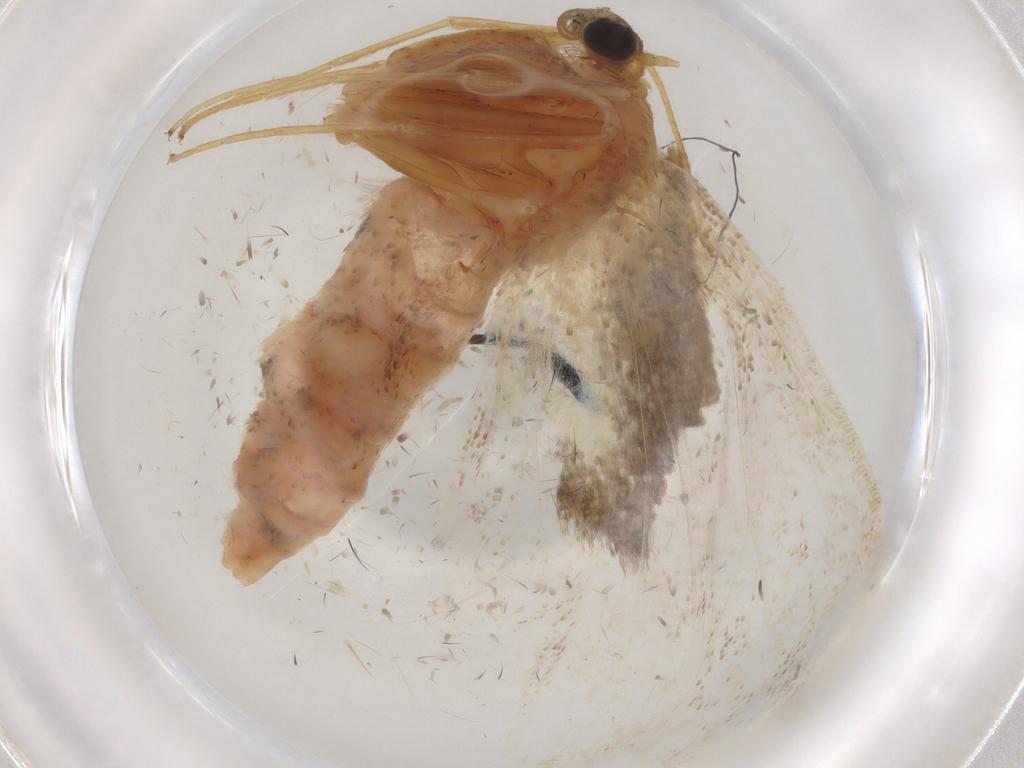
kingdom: Animalia
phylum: Arthropoda
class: Insecta
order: Lepidoptera
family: Geometridae
